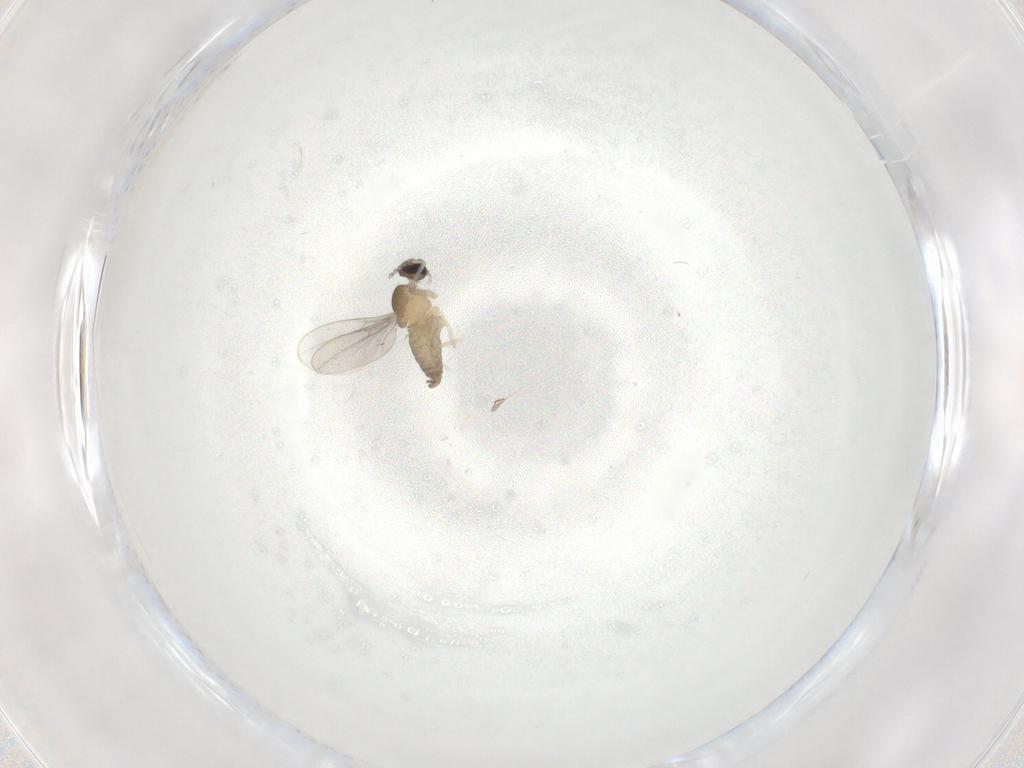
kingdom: Animalia
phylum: Arthropoda
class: Insecta
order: Diptera
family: Cecidomyiidae
